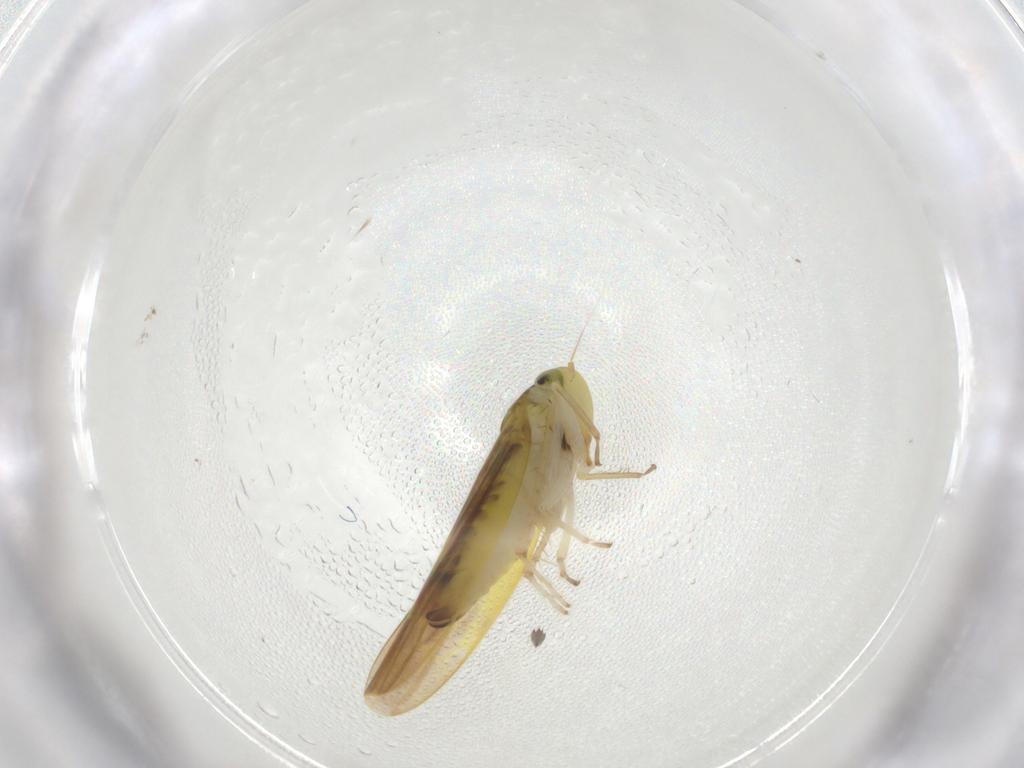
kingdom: Animalia
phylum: Arthropoda
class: Insecta
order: Hemiptera
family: Cicadellidae
